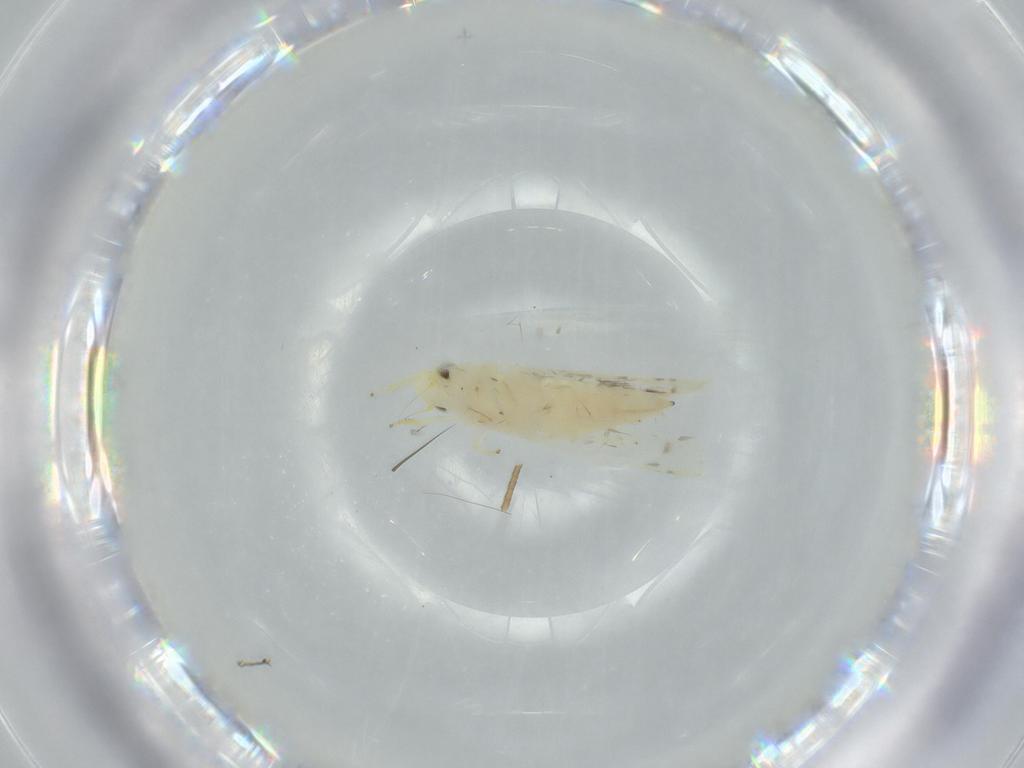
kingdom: Animalia
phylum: Arthropoda
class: Insecta
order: Hemiptera
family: Cicadellidae
